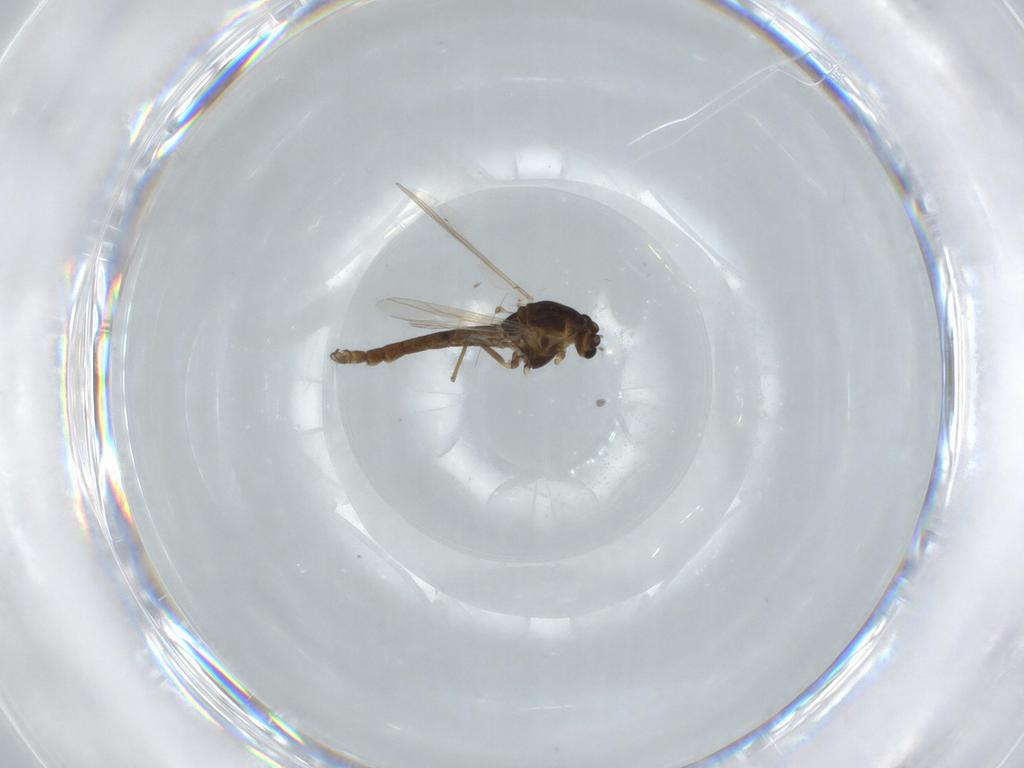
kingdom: Animalia
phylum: Arthropoda
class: Insecta
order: Diptera
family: Chironomidae
